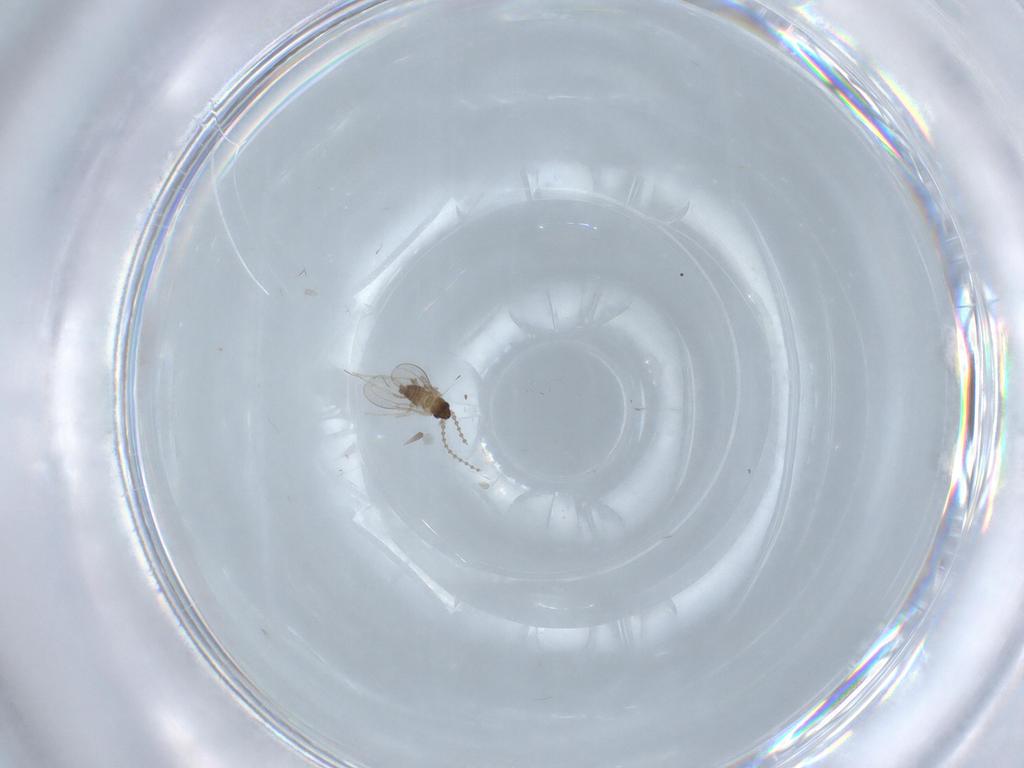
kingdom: Animalia
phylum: Arthropoda
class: Insecta
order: Diptera
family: Cecidomyiidae
